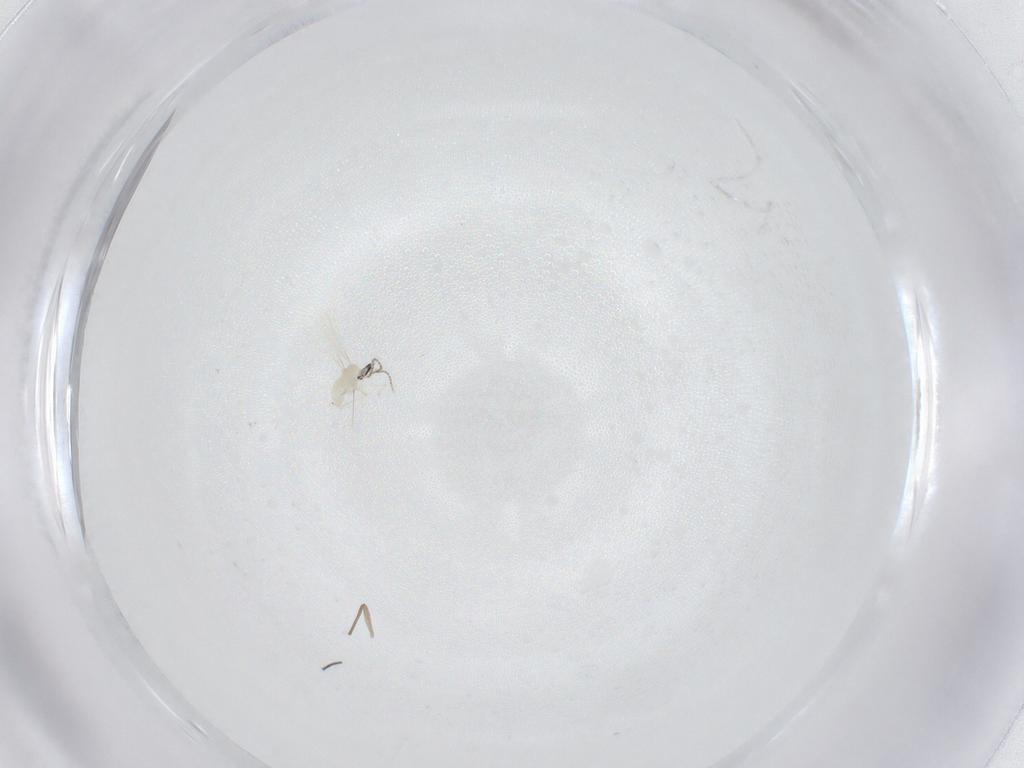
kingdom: Animalia
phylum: Arthropoda
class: Insecta
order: Diptera
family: Cecidomyiidae
